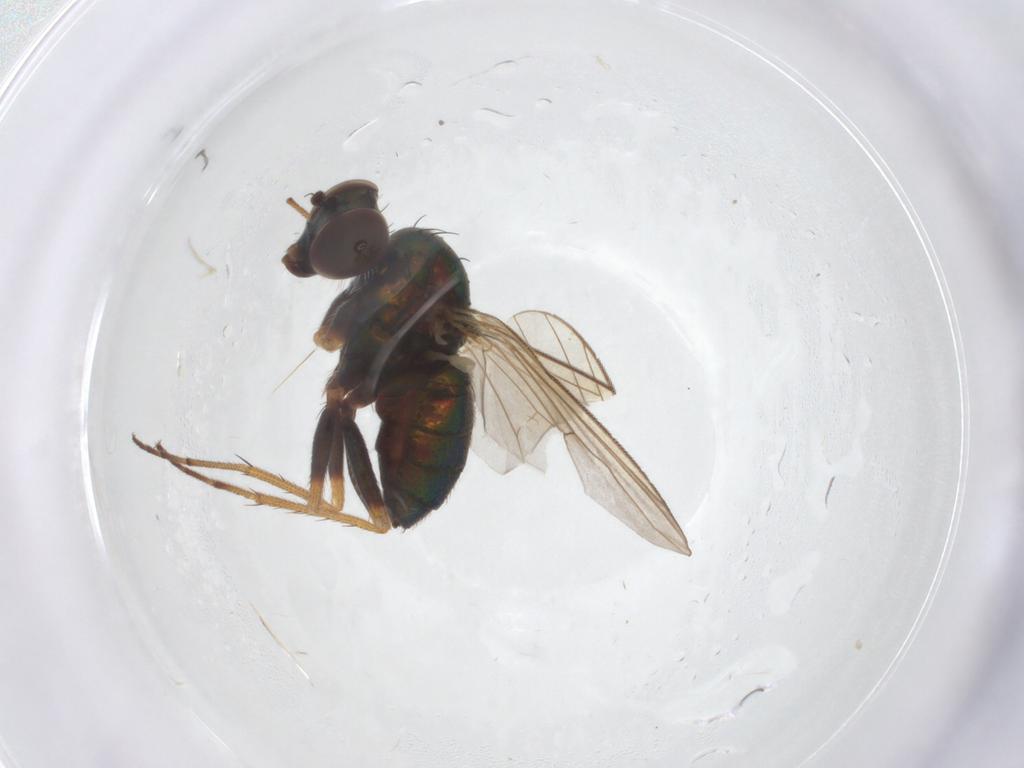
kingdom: Animalia
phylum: Arthropoda
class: Insecta
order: Diptera
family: Dolichopodidae
